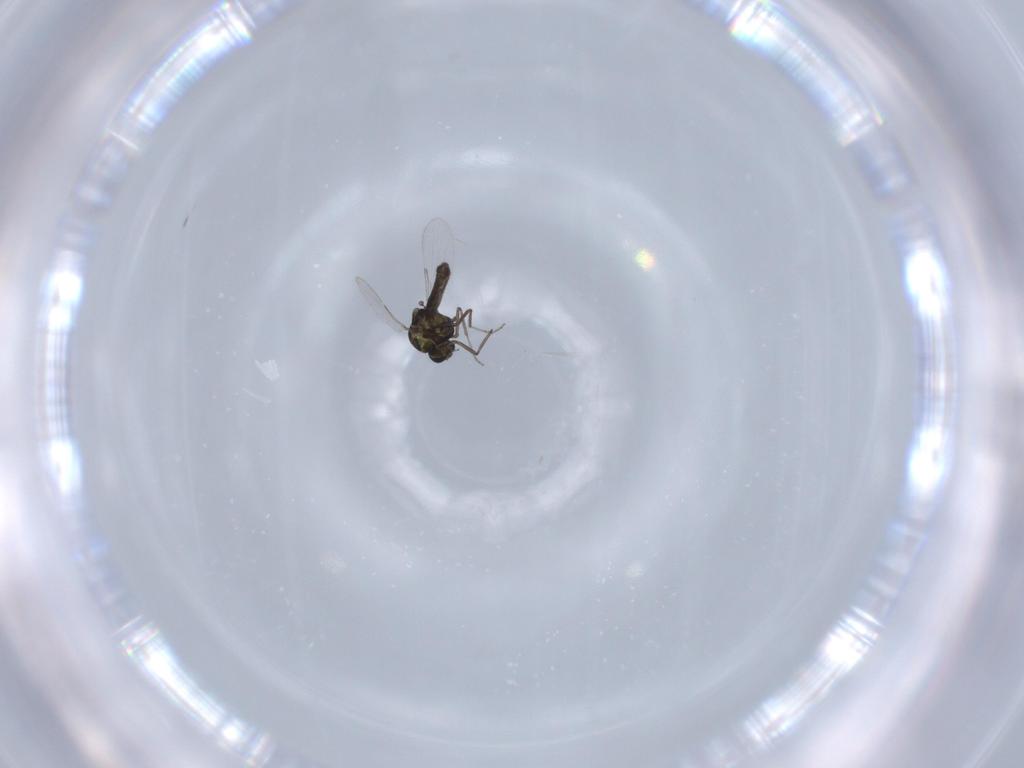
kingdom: Animalia
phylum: Arthropoda
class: Insecta
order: Diptera
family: Ceratopogonidae
